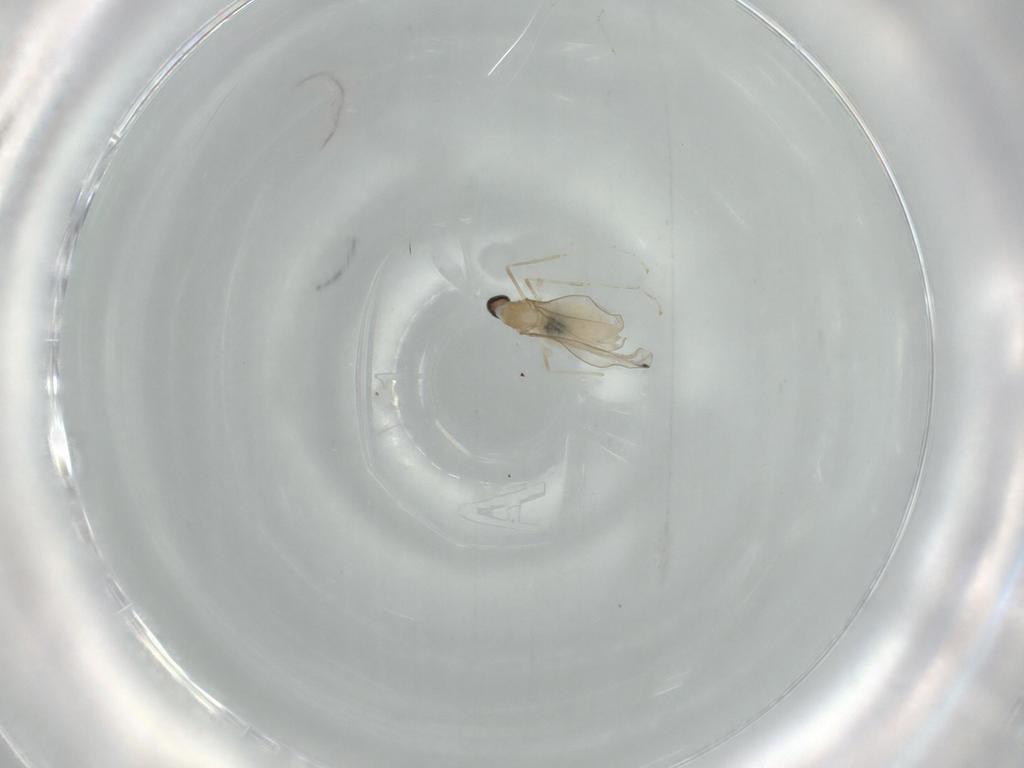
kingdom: Animalia
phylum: Arthropoda
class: Insecta
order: Diptera
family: Cecidomyiidae
